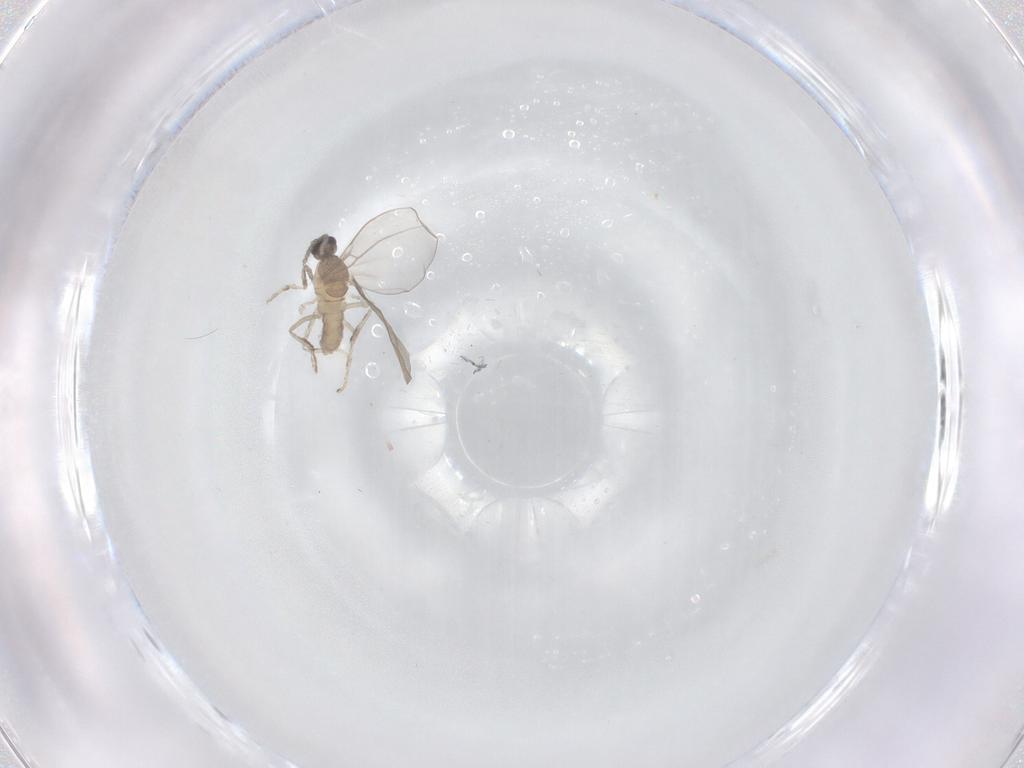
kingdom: Animalia
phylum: Arthropoda
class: Insecta
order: Diptera
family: Cecidomyiidae
